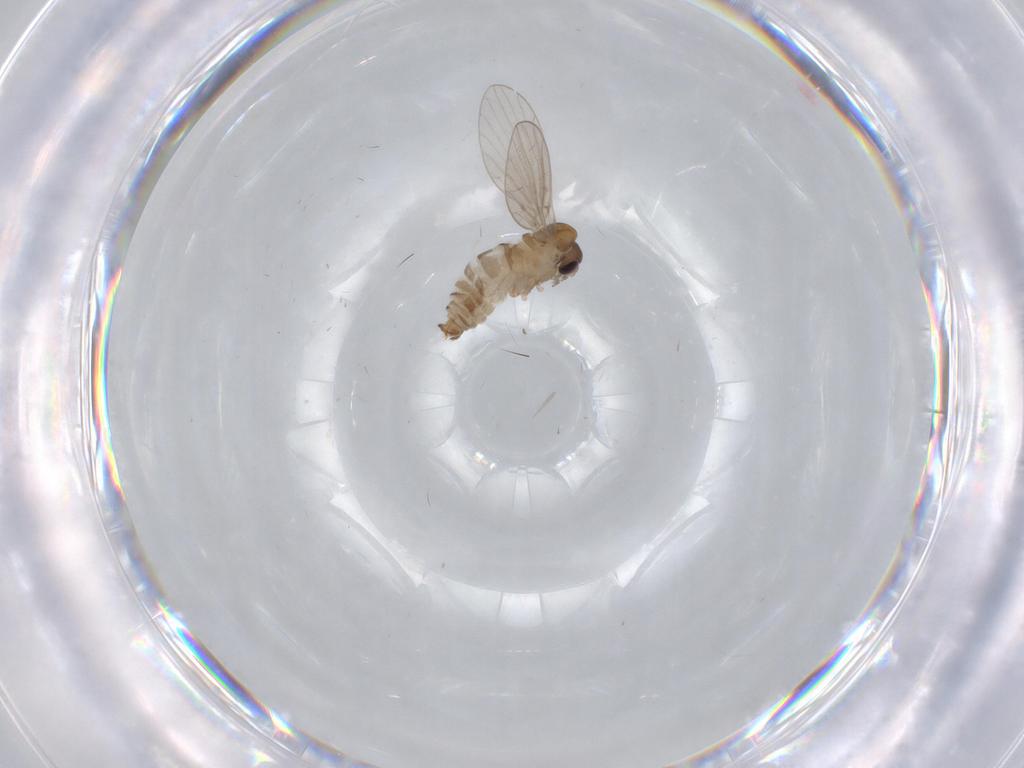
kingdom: Animalia
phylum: Arthropoda
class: Insecta
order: Diptera
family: Psychodidae
